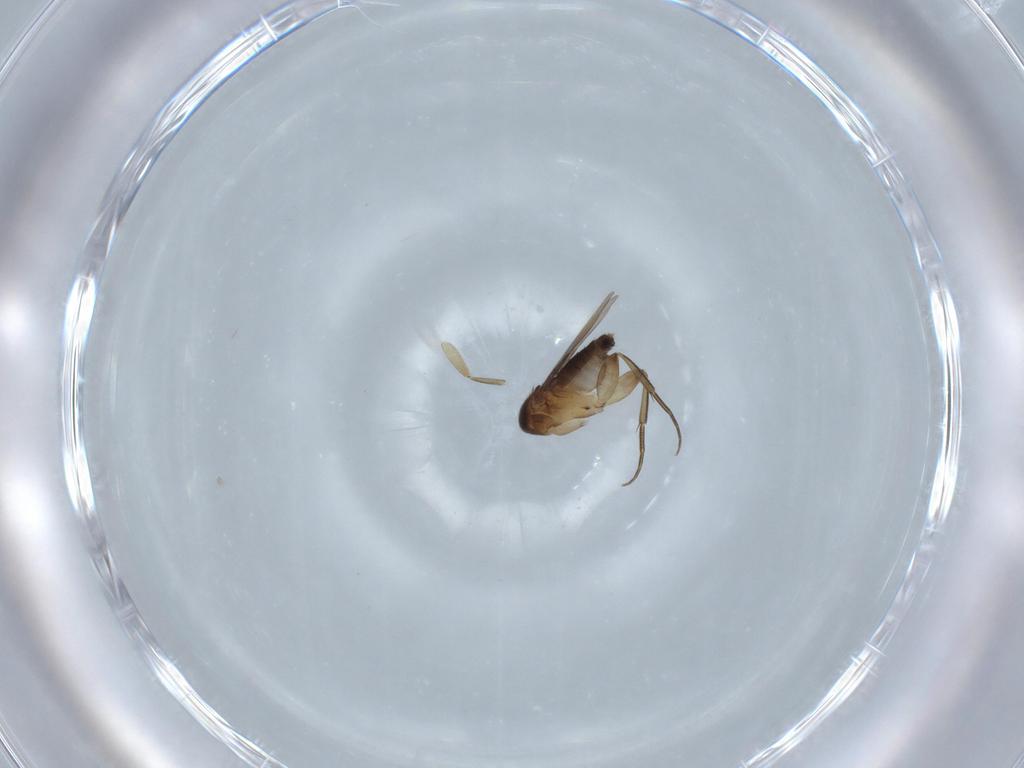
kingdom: Animalia
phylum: Arthropoda
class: Insecta
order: Diptera
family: Phoridae
